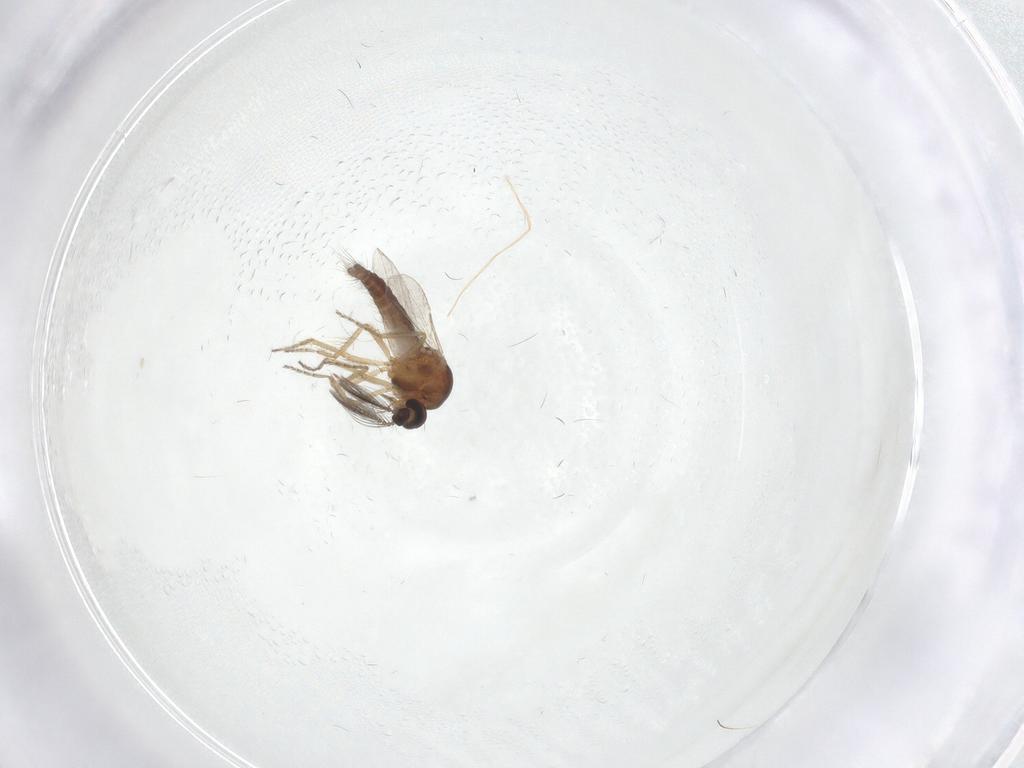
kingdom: Animalia
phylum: Arthropoda
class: Insecta
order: Diptera
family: Ceratopogonidae
